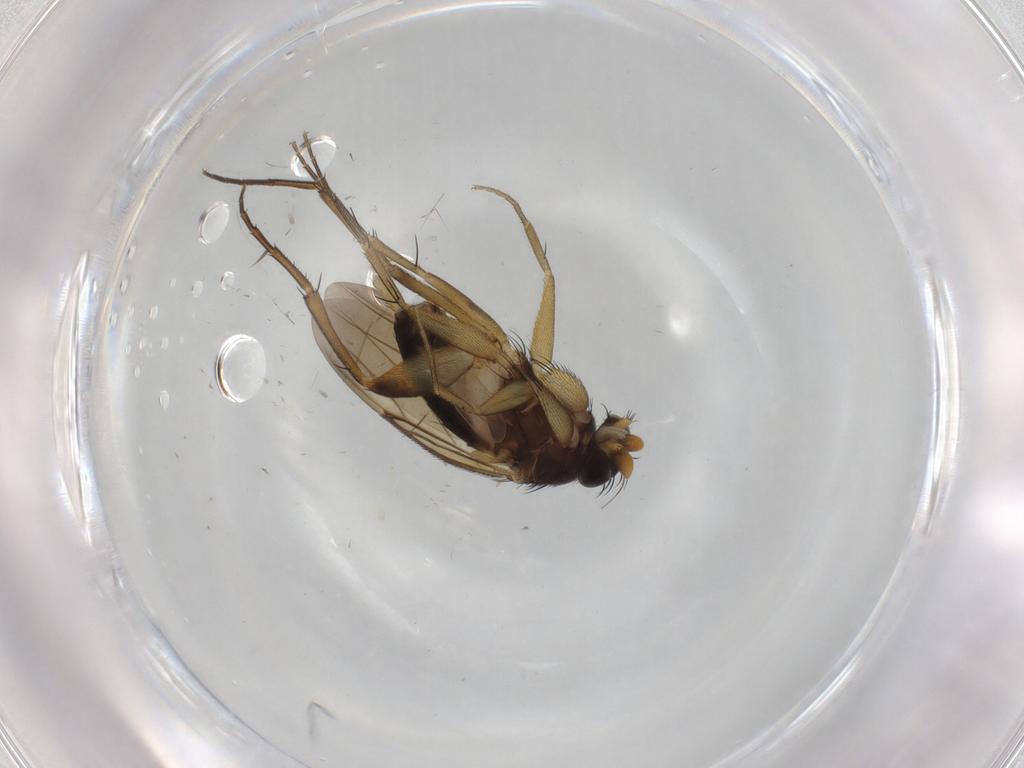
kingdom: Animalia
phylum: Arthropoda
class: Insecta
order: Diptera
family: Phoridae
